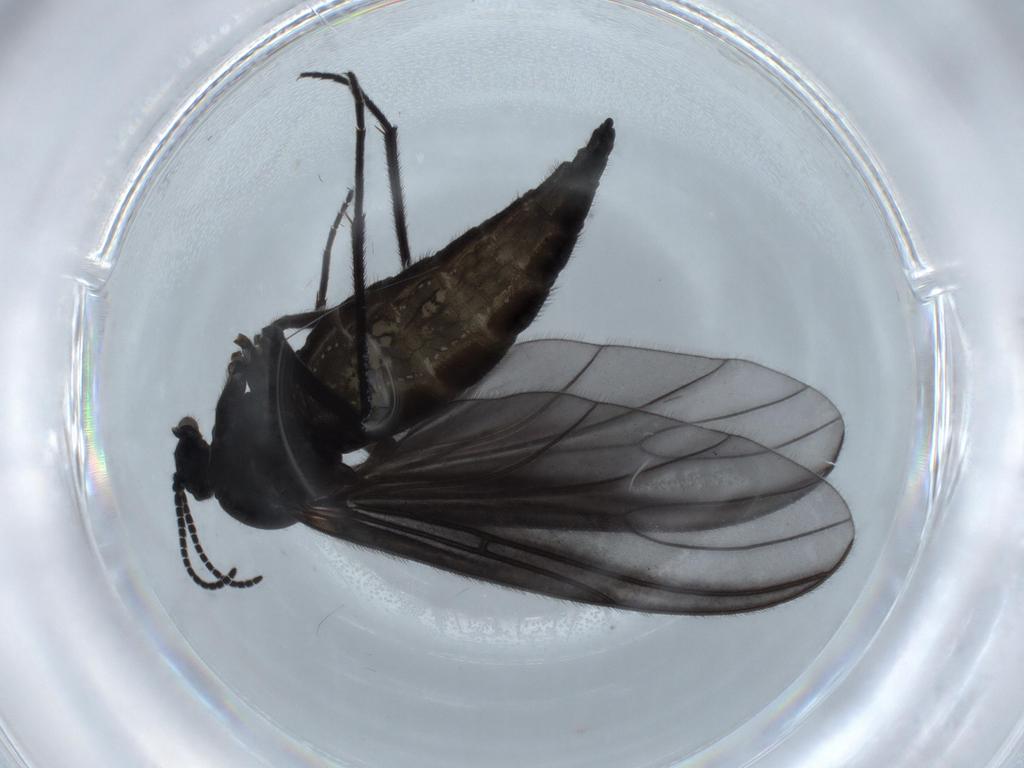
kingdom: Animalia
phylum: Arthropoda
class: Insecta
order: Diptera
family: Sciaridae
